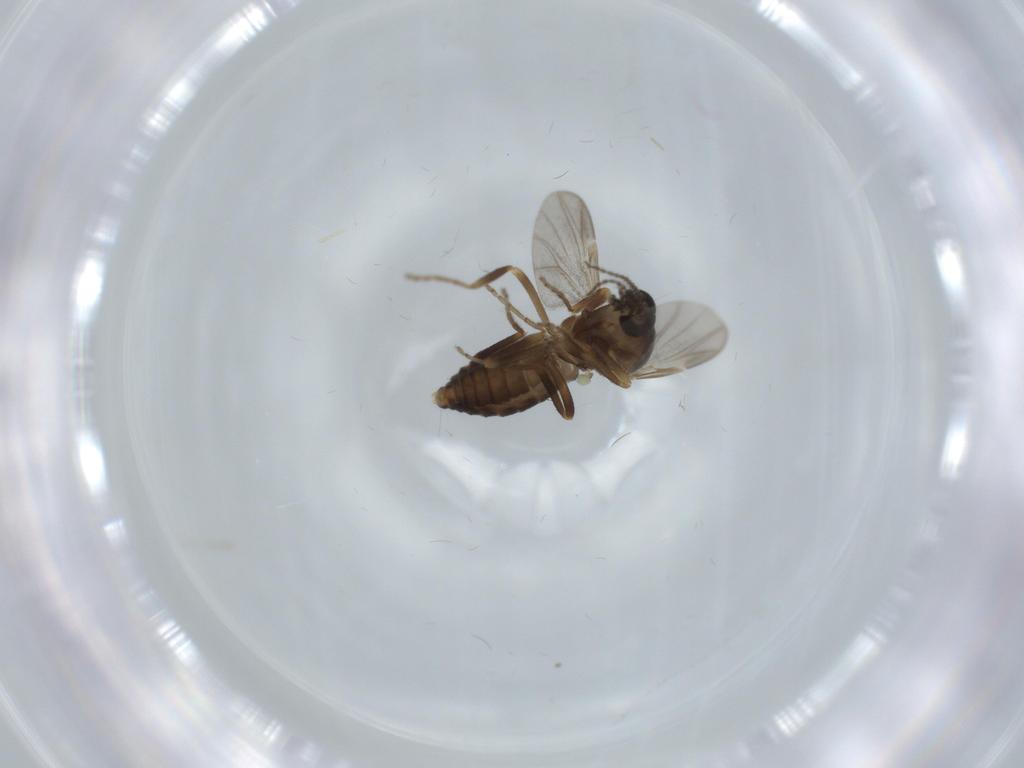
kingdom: Animalia
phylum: Arthropoda
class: Insecta
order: Diptera
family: Ceratopogonidae
